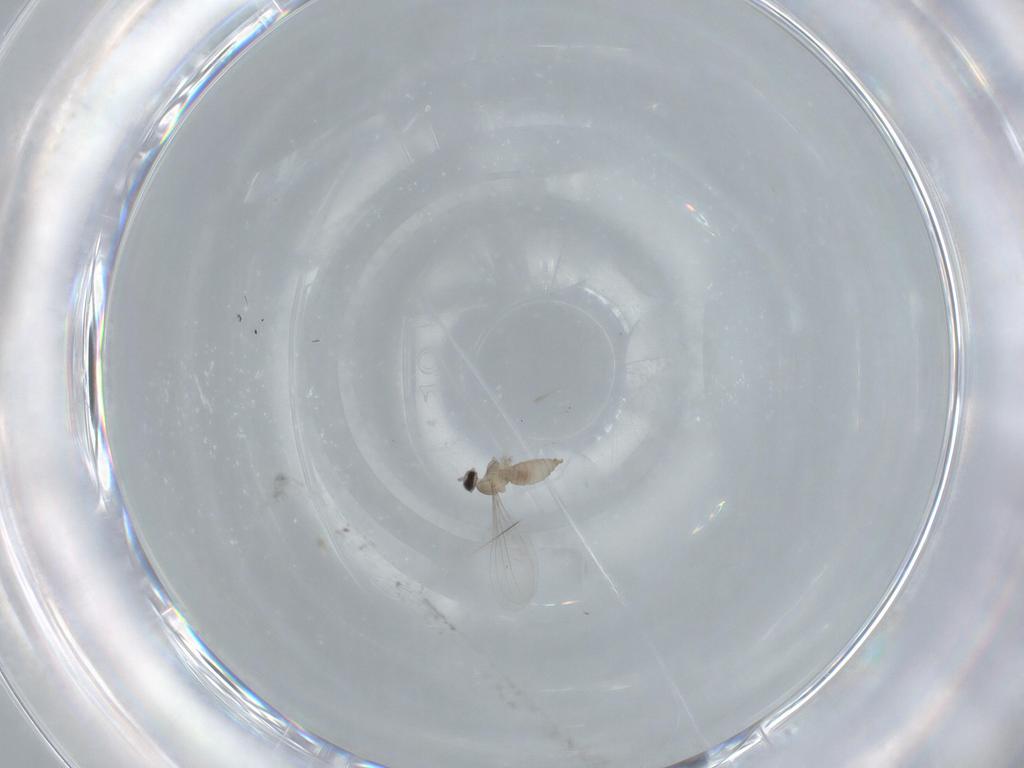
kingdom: Animalia
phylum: Arthropoda
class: Insecta
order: Diptera
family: Cecidomyiidae
